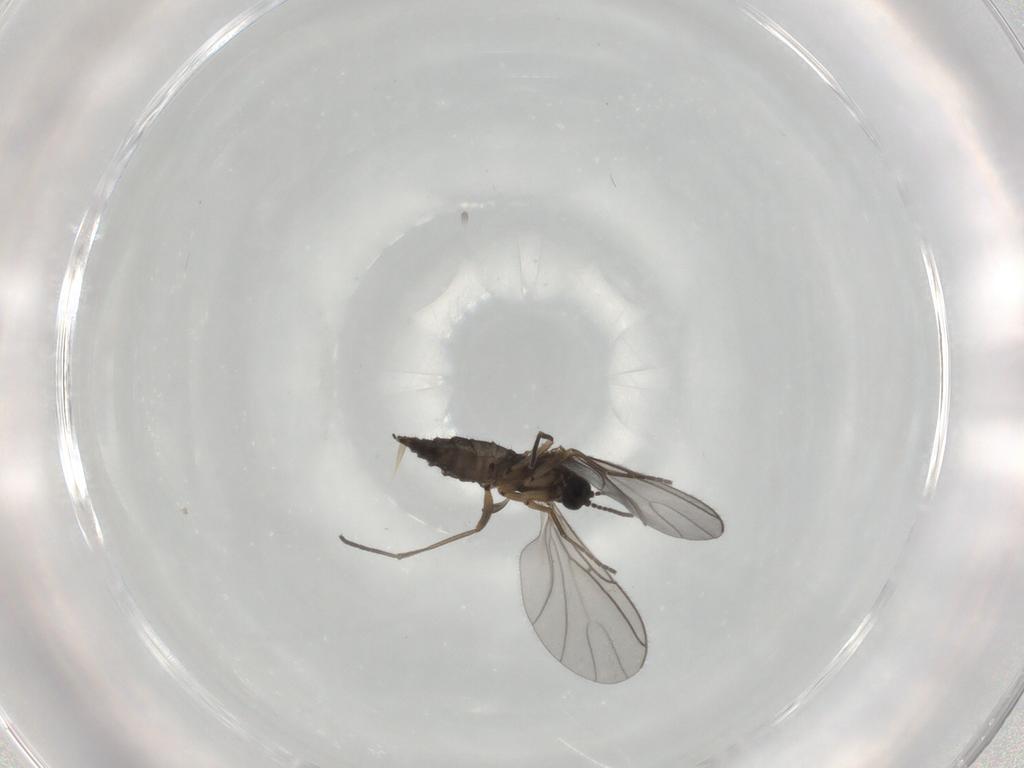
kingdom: Animalia
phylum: Arthropoda
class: Insecta
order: Diptera
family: Sciaridae
